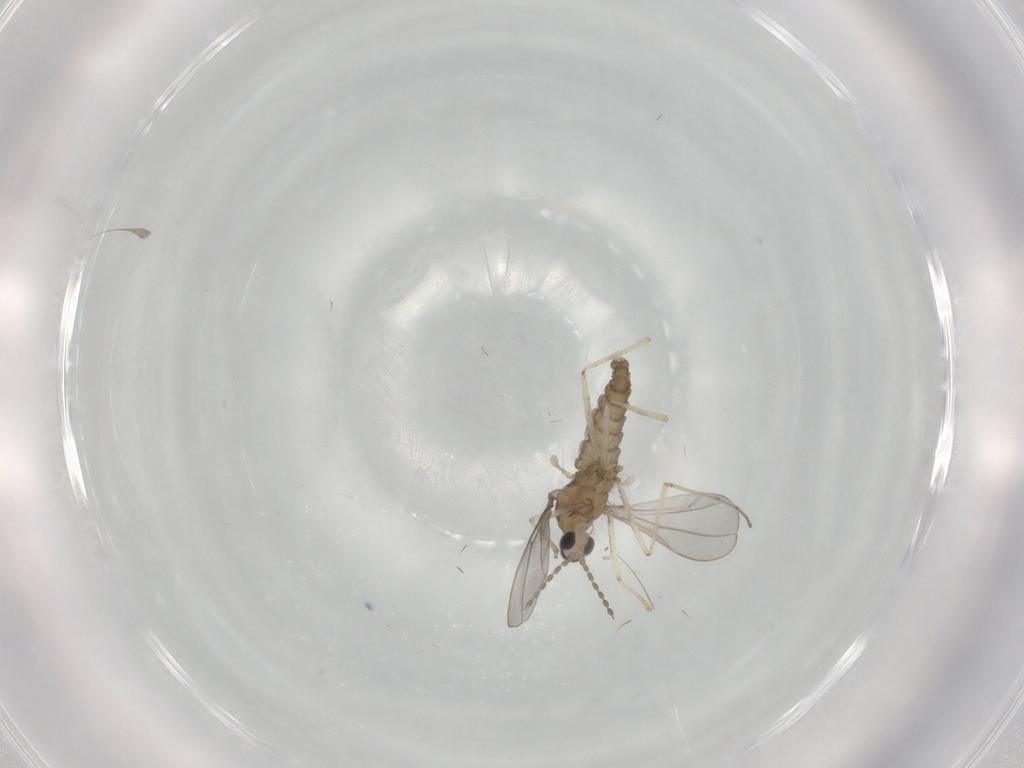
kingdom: Animalia
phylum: Arthropoda
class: Insecta
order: Diptera
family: Cecidomyiidae
